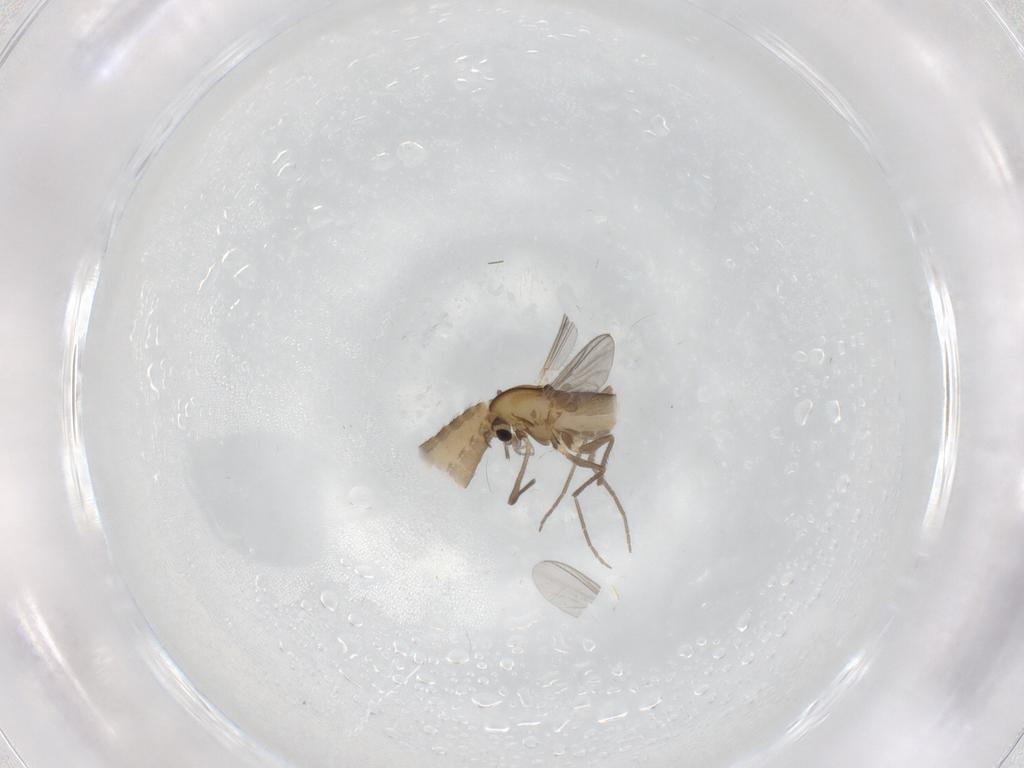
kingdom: Animalia
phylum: Arthropoda
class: Insecta
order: Diptera
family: Chironomidae
